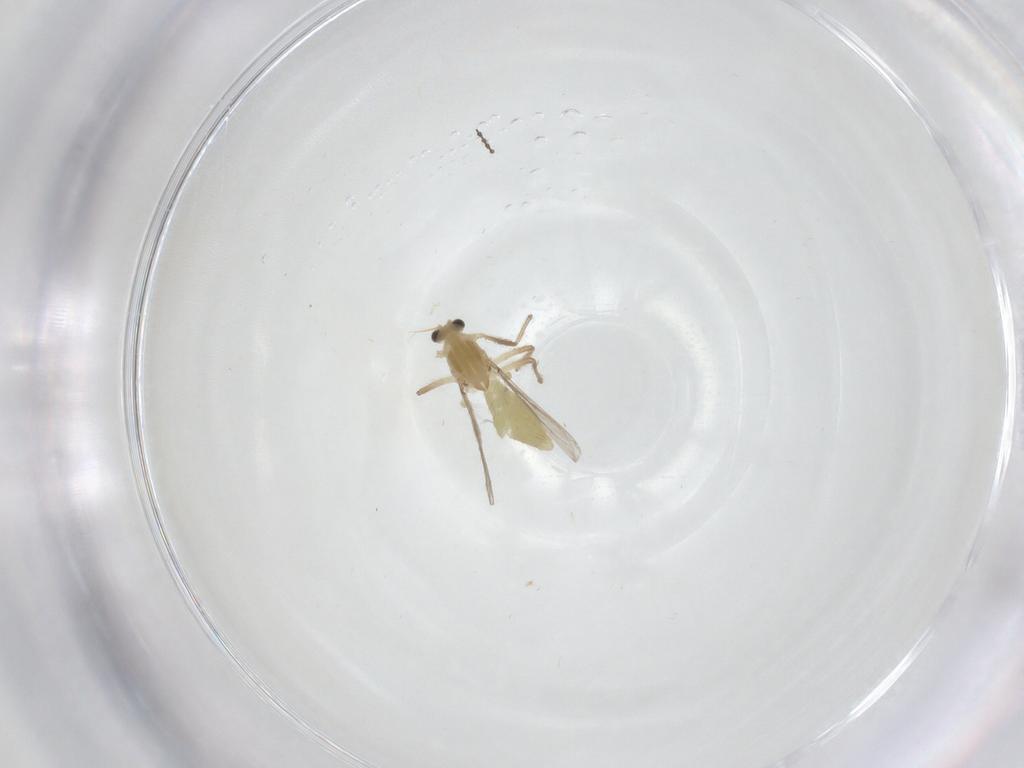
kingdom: Animalia
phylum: Arthropoda
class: Insecta
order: Diptera
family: Chironomidae
